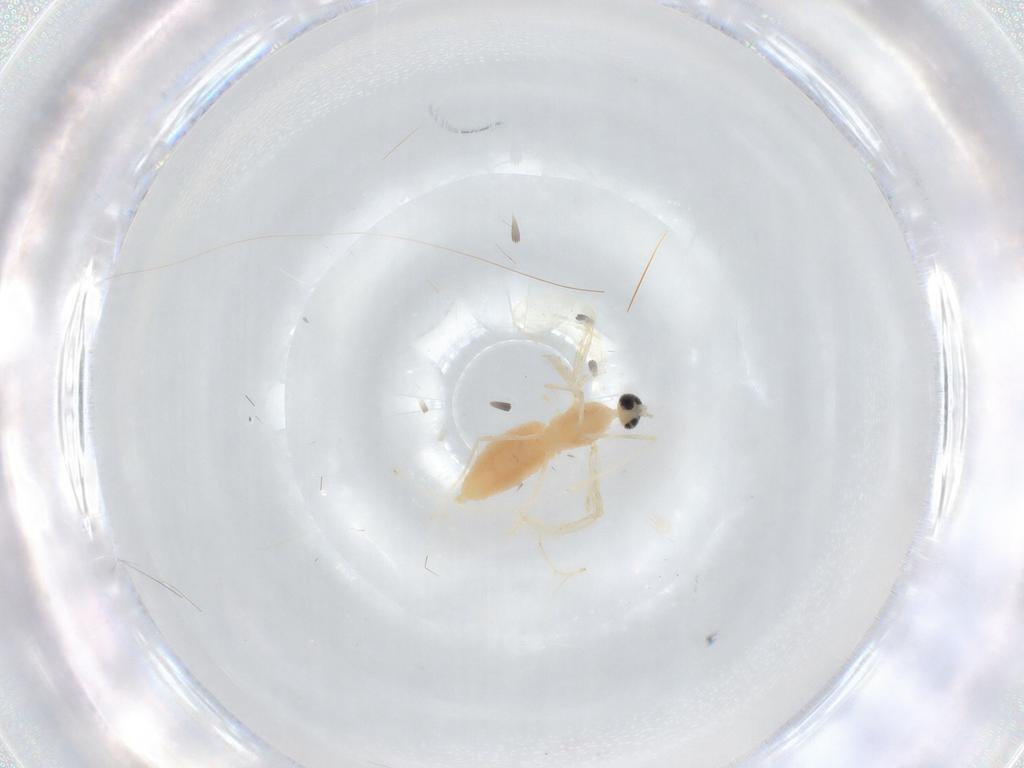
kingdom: Animalia
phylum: Arthropoda
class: Insecta
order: Diptera
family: Cecidomyiidae
